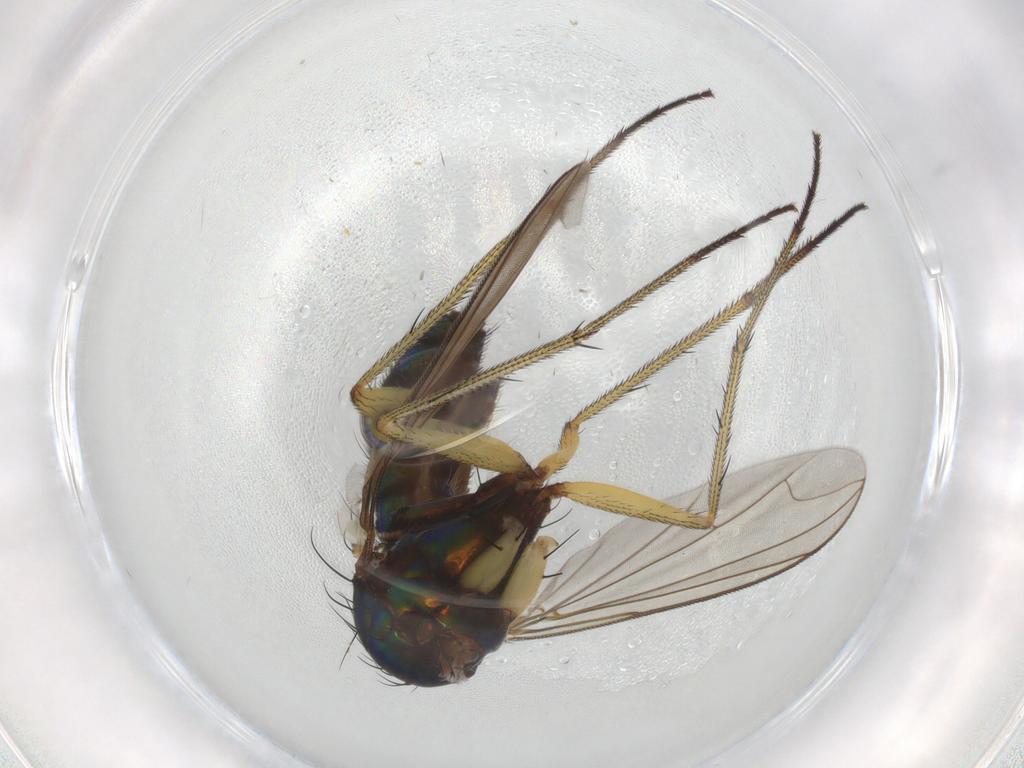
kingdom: Animalia
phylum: Arthropoda
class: Insecta
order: Diptera
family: Dolichopodidae
